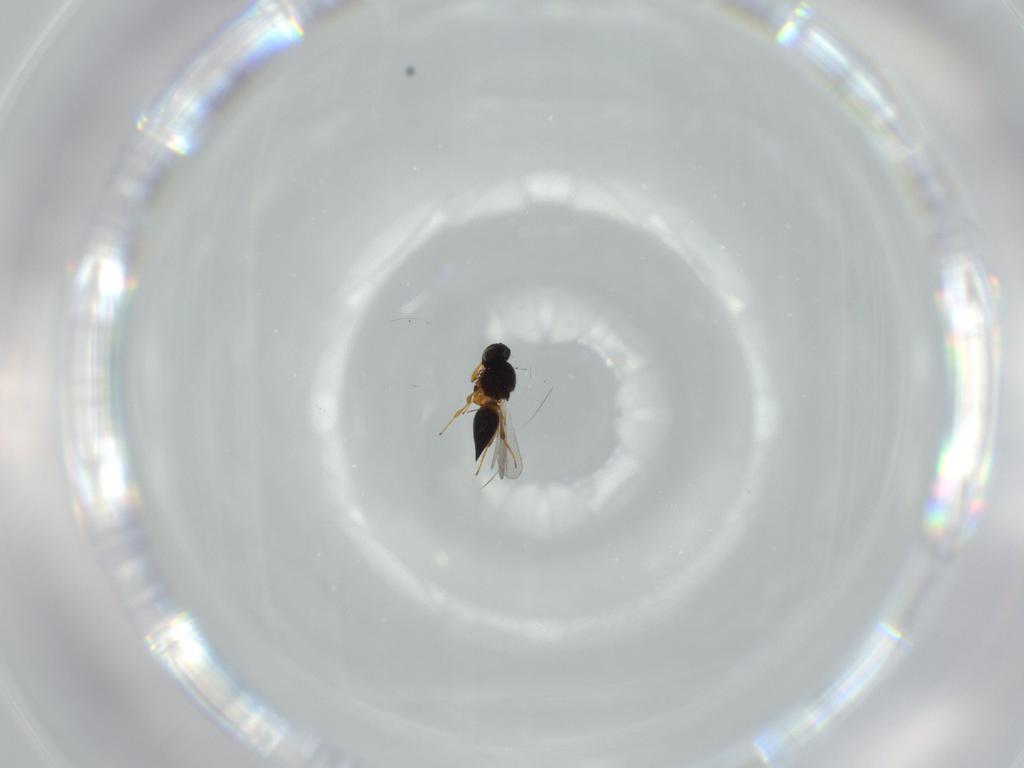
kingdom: Animalia
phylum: Arthropoda
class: Insecta
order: Hymenoptera
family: Platygastridae
